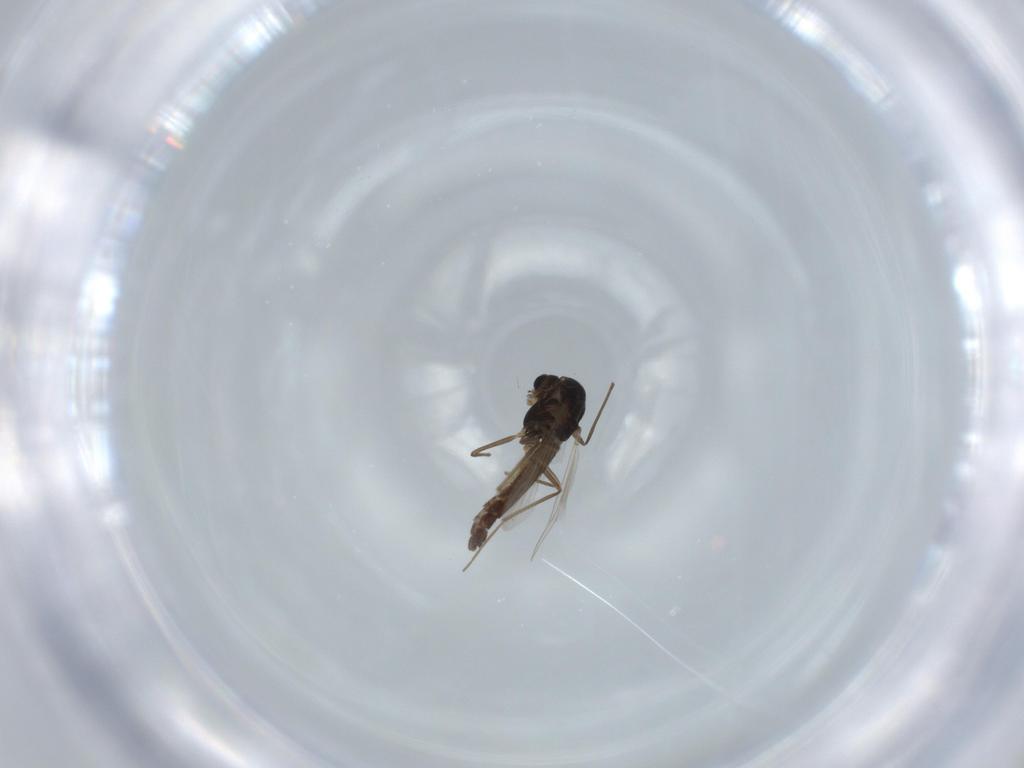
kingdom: Animalia
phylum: Arthropoda
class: Insecta
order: Diptera
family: Chironomidae
